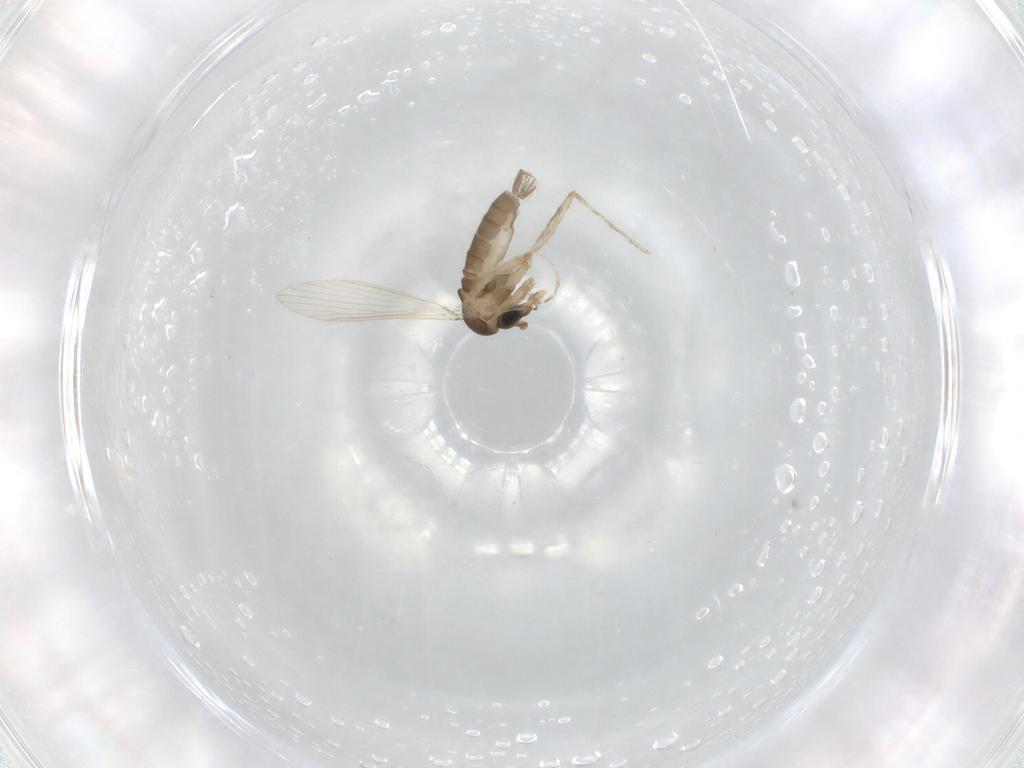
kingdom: Animalia
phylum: Arthropoda
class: Insecta
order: Diptera
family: Psychodidae
